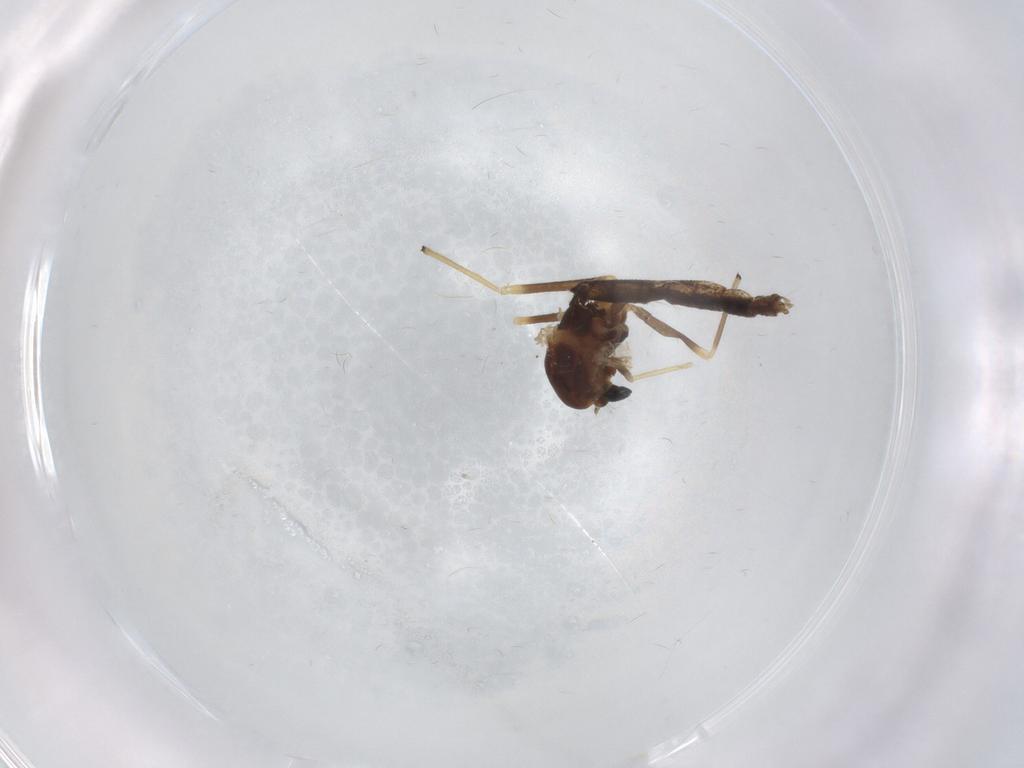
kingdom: Animalia
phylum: Arthropoda
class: Insecta
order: Diptera
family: Chironomidae
